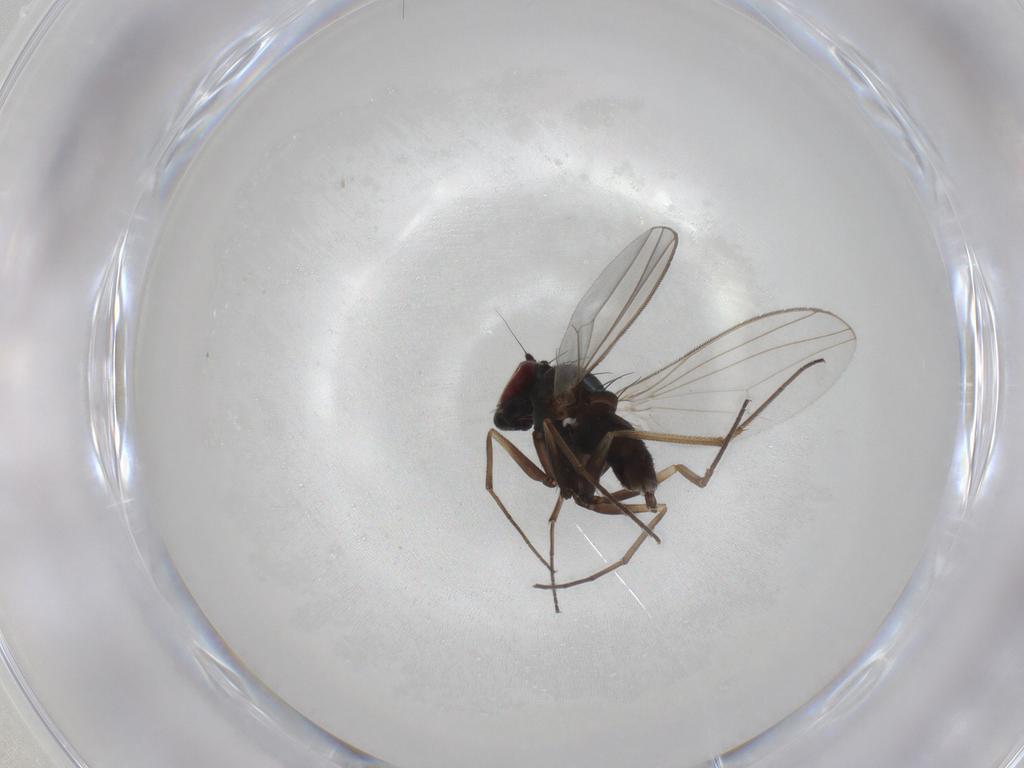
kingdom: Animalia
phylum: Arthropoda
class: Insecta
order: Diptera
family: Dolichopodidae
